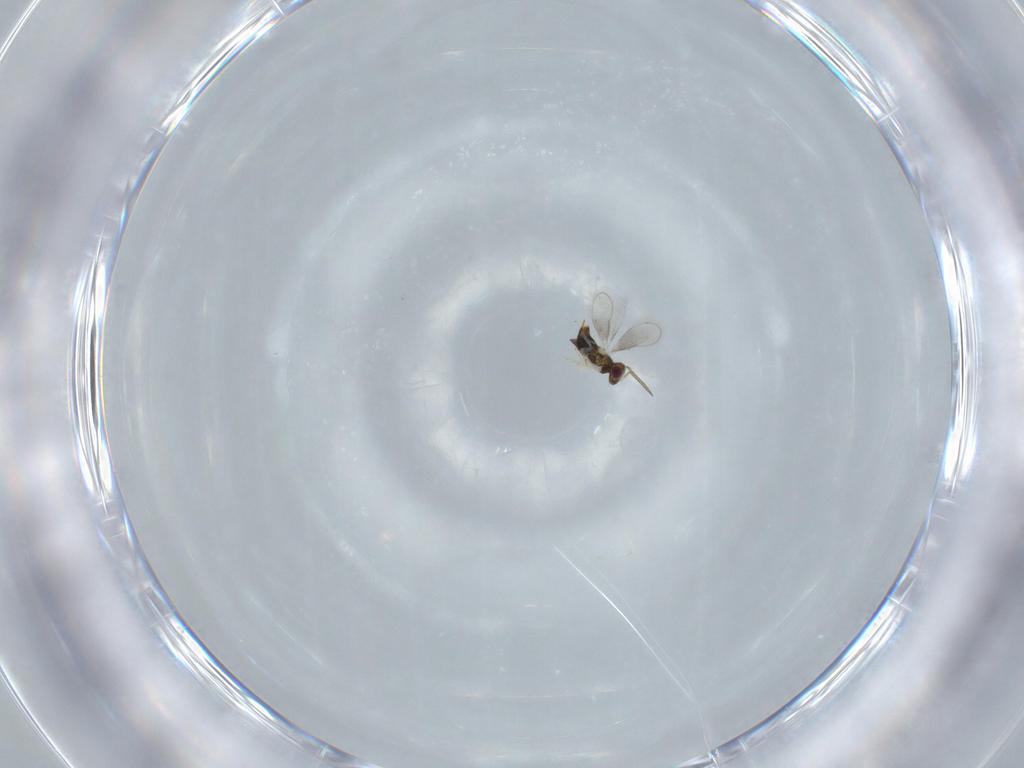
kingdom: Animalia
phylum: Arthropoda
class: Insecta
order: Hymenoptera
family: Aphelinidae
